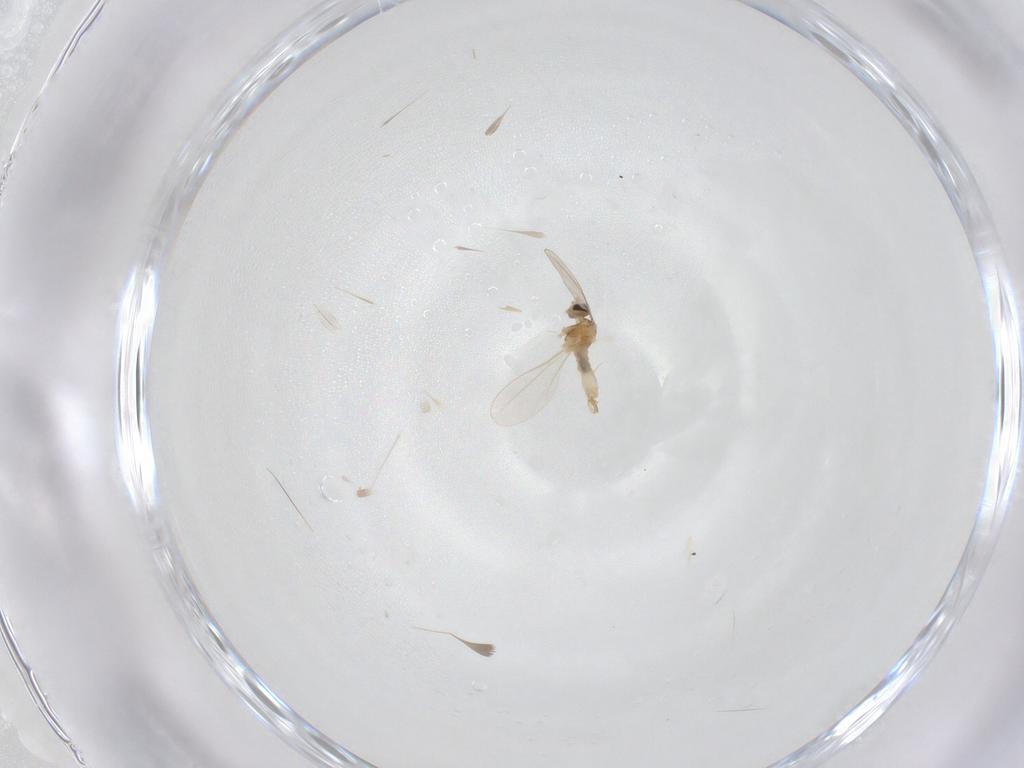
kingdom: Animalia
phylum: Arthropoda
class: Insecta
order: Diptera
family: Cecidomyiidae
